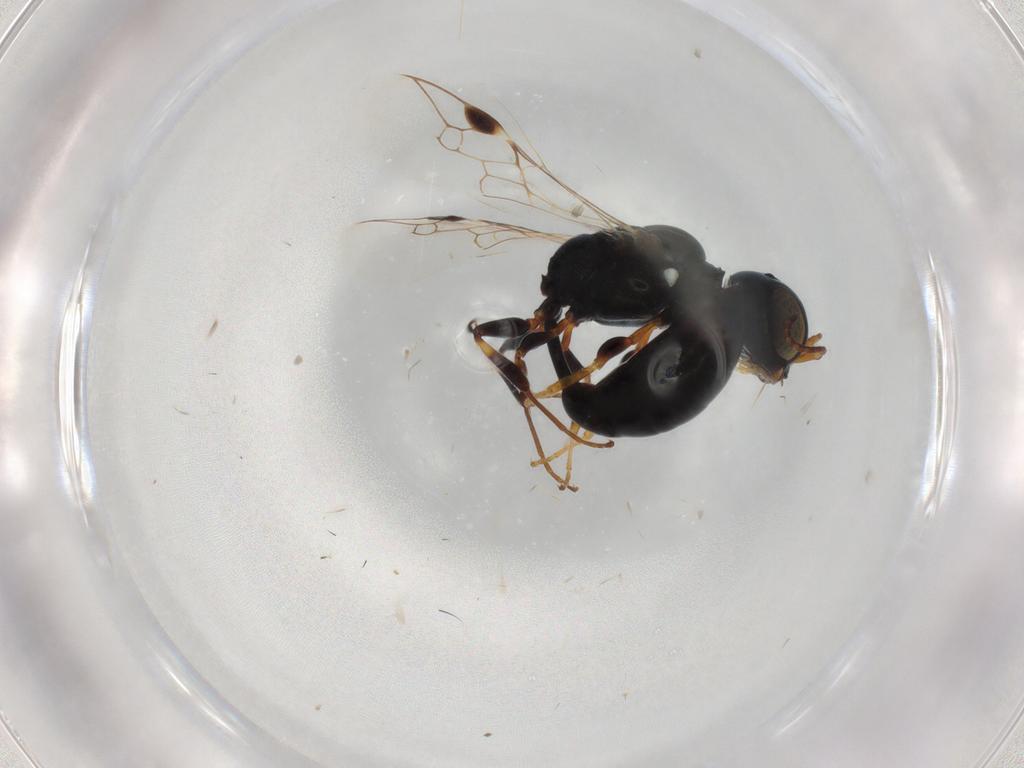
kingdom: Animalia
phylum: Arthropoda
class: Insecta
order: Hymenoptera
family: Crabronidae
